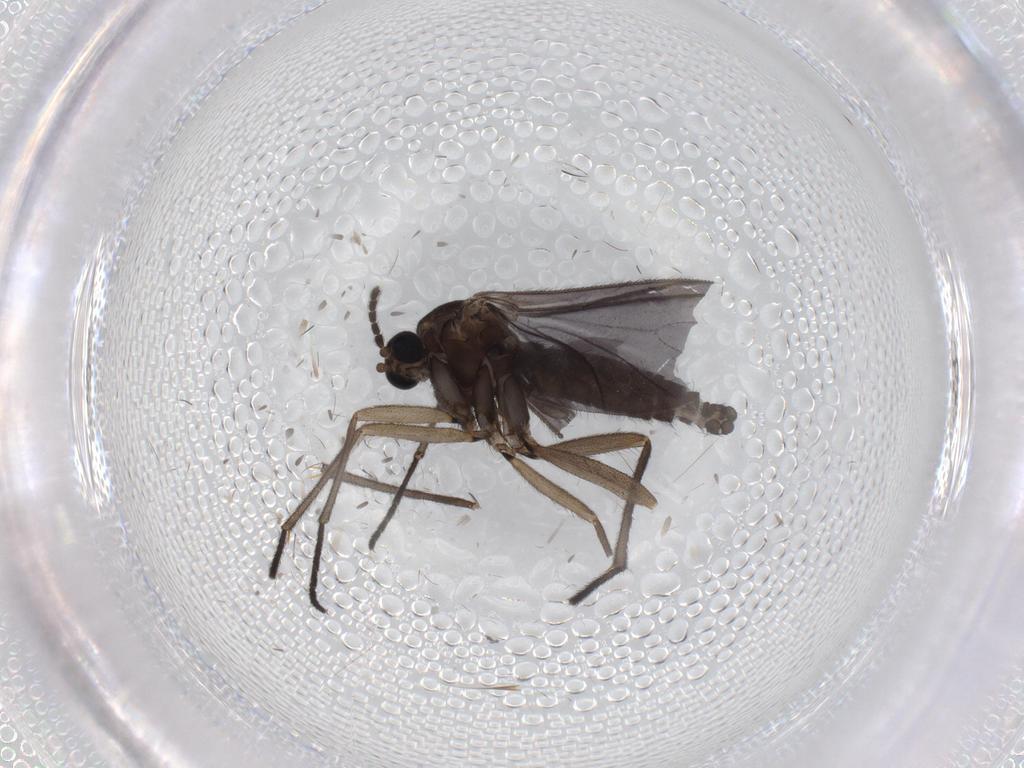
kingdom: Animalia
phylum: Arthropoda
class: Insecta
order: Diptera
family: Sciaridae
